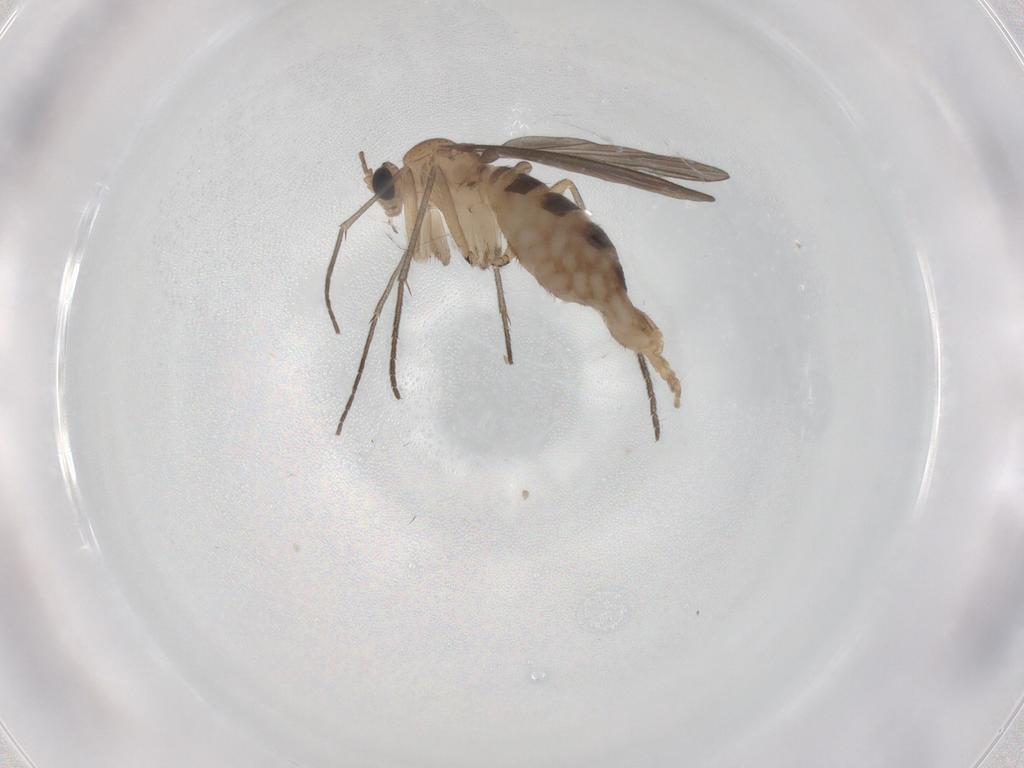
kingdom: Animalia
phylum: Arthropoda
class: Insecta
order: Diptera
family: Sciaridae
